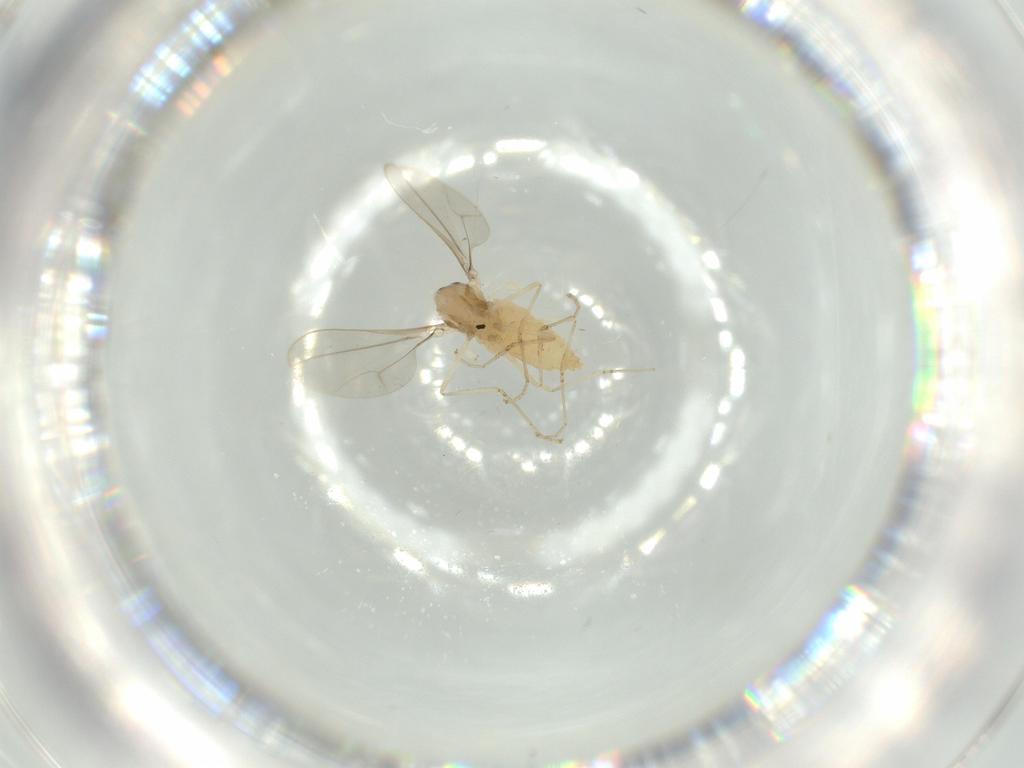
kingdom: Animalia
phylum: Arthropoda
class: Insecta
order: Diptera
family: Cecidomyiidae
